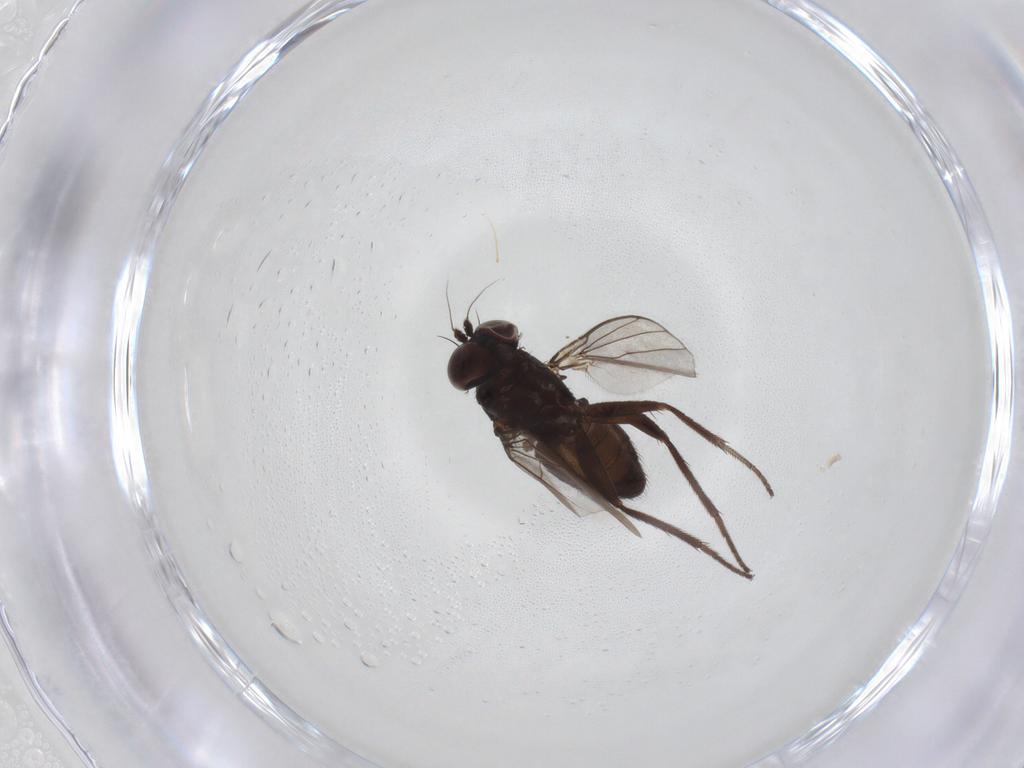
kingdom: Animalia
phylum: Arthropoda
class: Insecta
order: Diptera
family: Dolichopodidae
